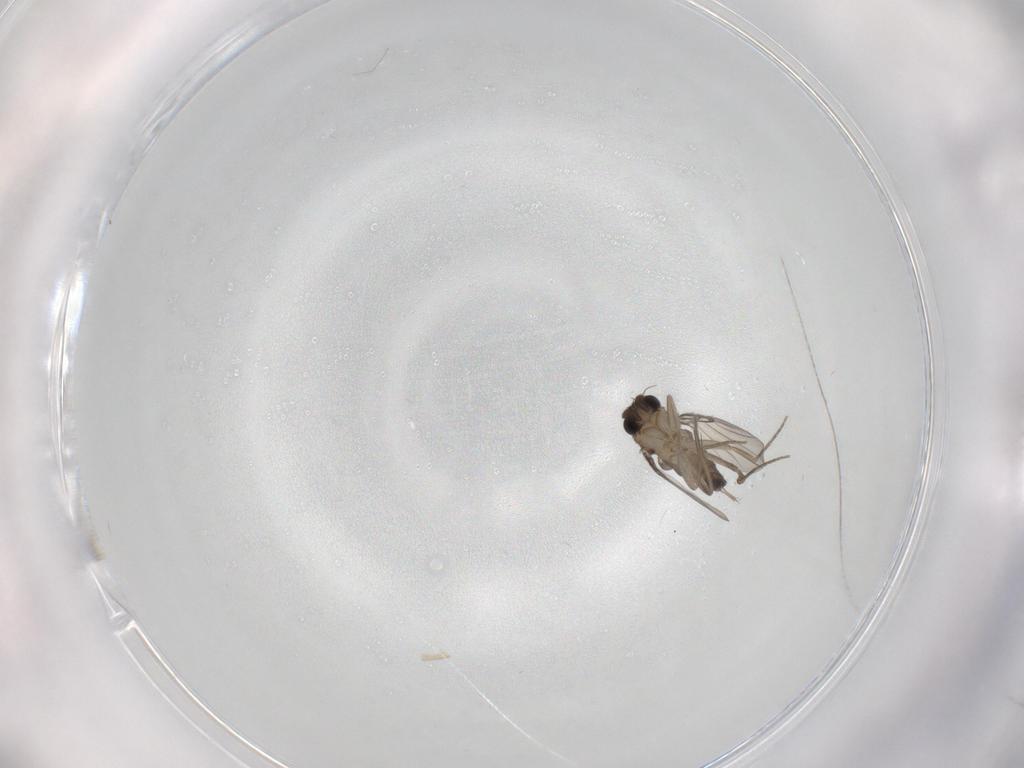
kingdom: Animalia
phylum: Arthropoda
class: Insecta
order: Diptera
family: Phoridae
